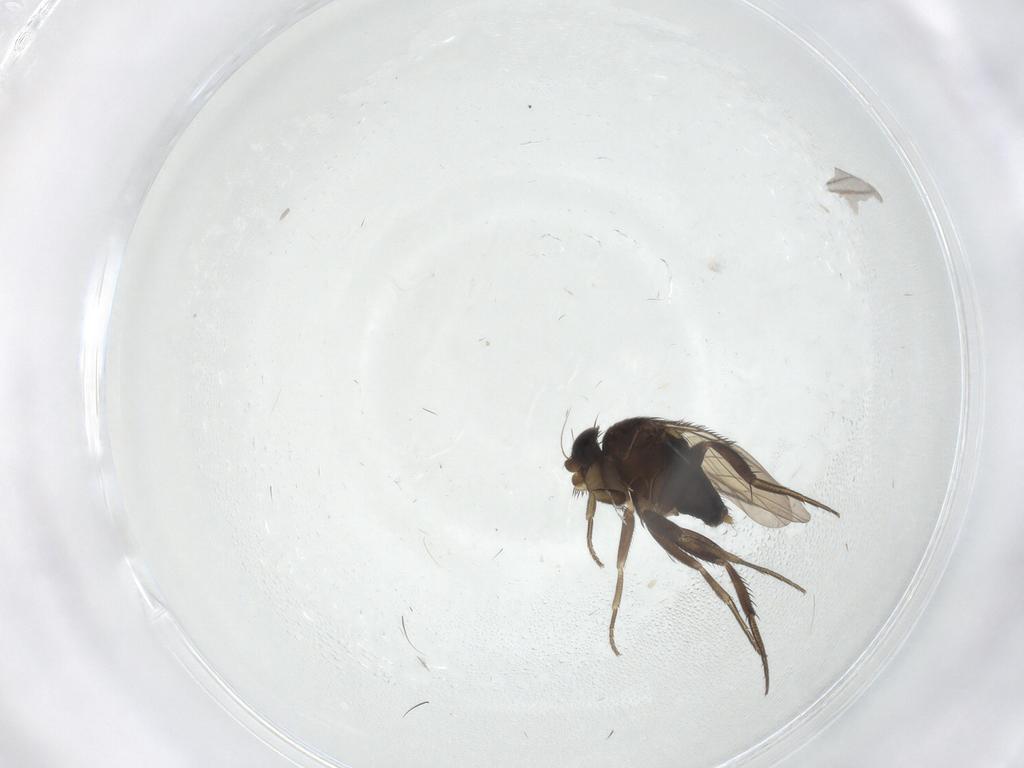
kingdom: Animalia
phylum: Arthropoda
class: Insecta
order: Diptera
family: Phoridae
